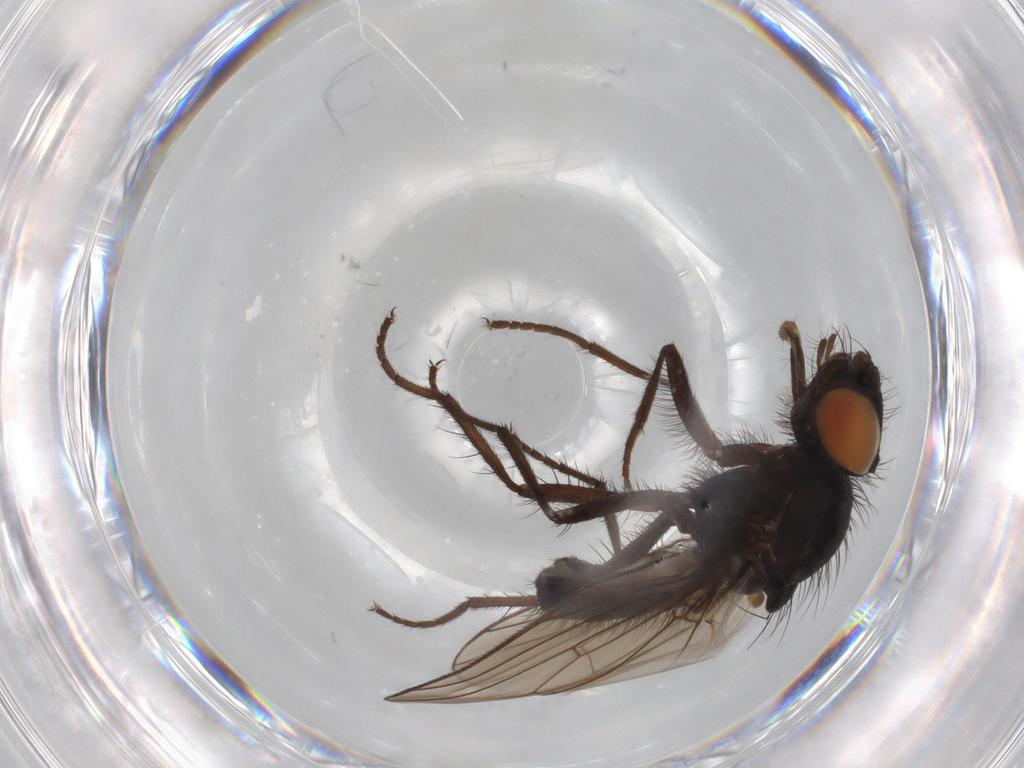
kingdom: Animalia
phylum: Arthropoda
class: Insecta
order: Diptera
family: Anthomyiidae
